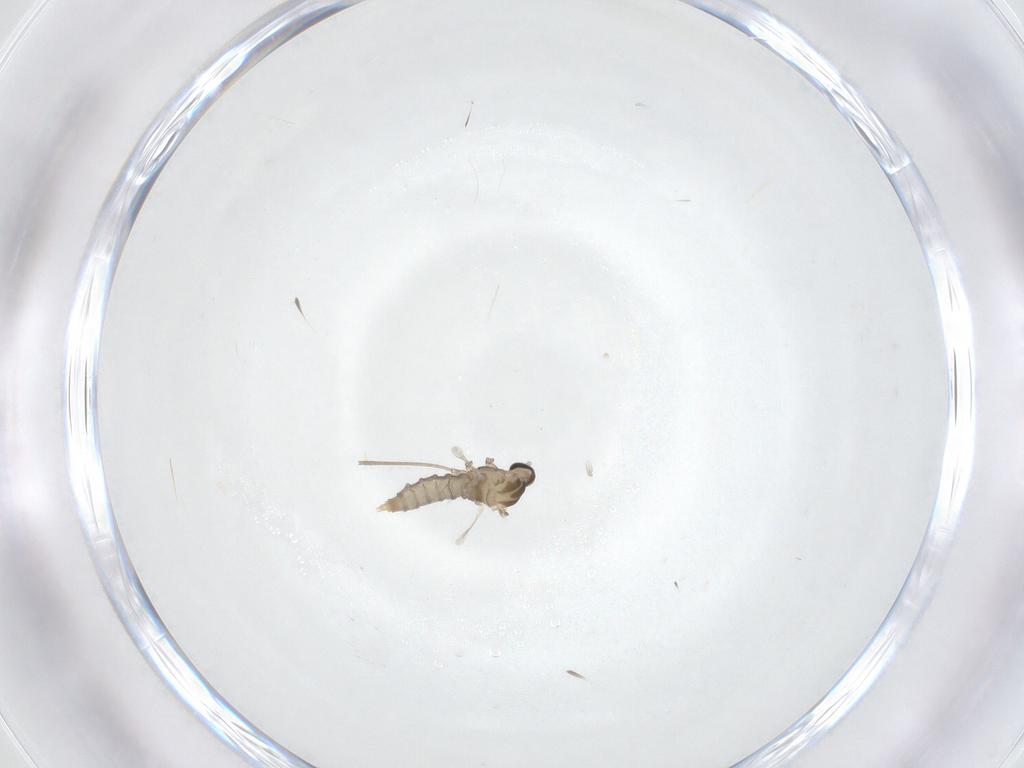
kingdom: Animalia
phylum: Arthropoda
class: Insecta
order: Diptera
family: Cecidomyiidae
